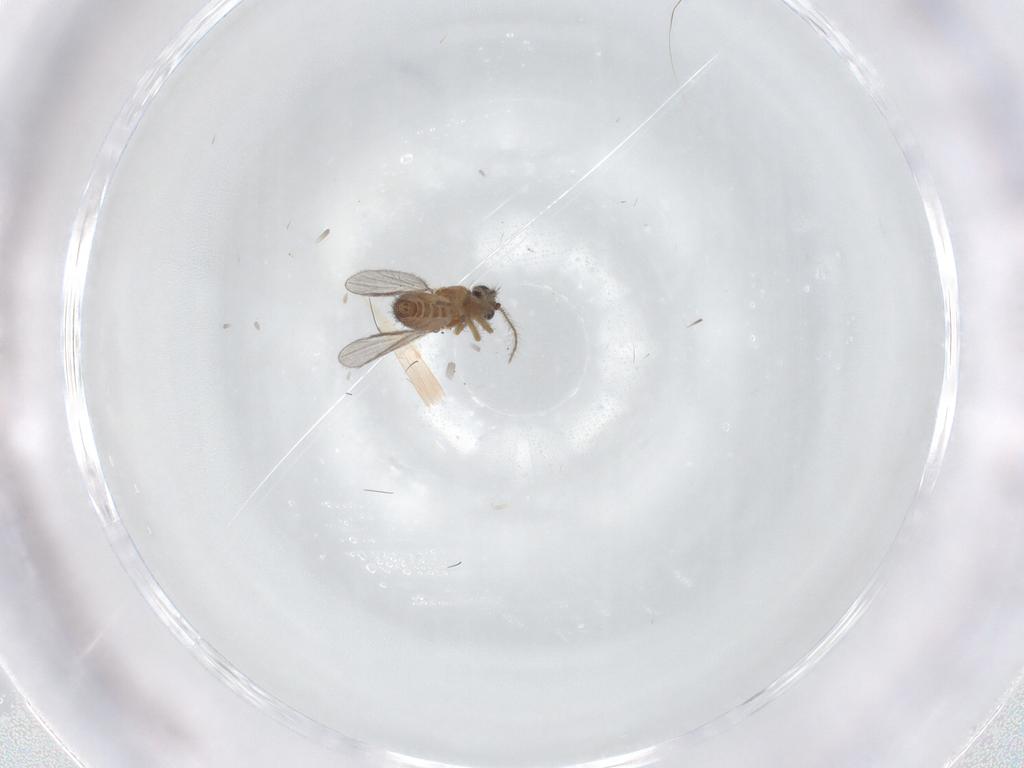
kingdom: Animalia
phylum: Arthropoda
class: Insecta
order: Diptera
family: Ceratopogonidae
